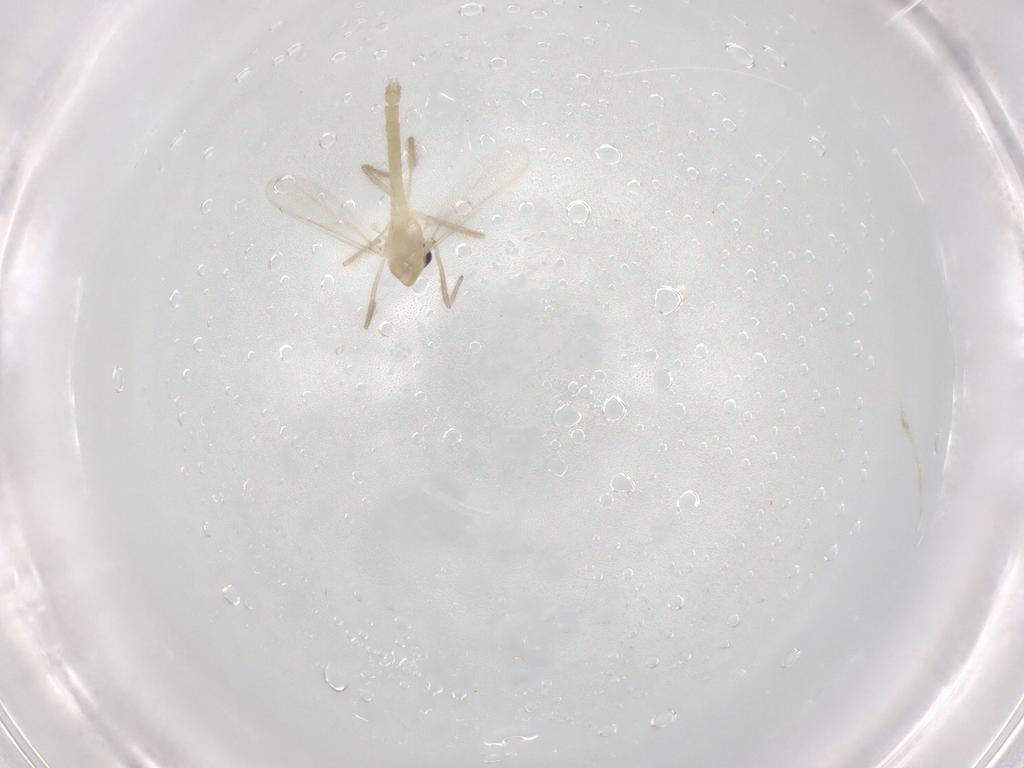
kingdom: Animalia
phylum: Arthropoda
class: Insecta
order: Diptera
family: Chironomidae
